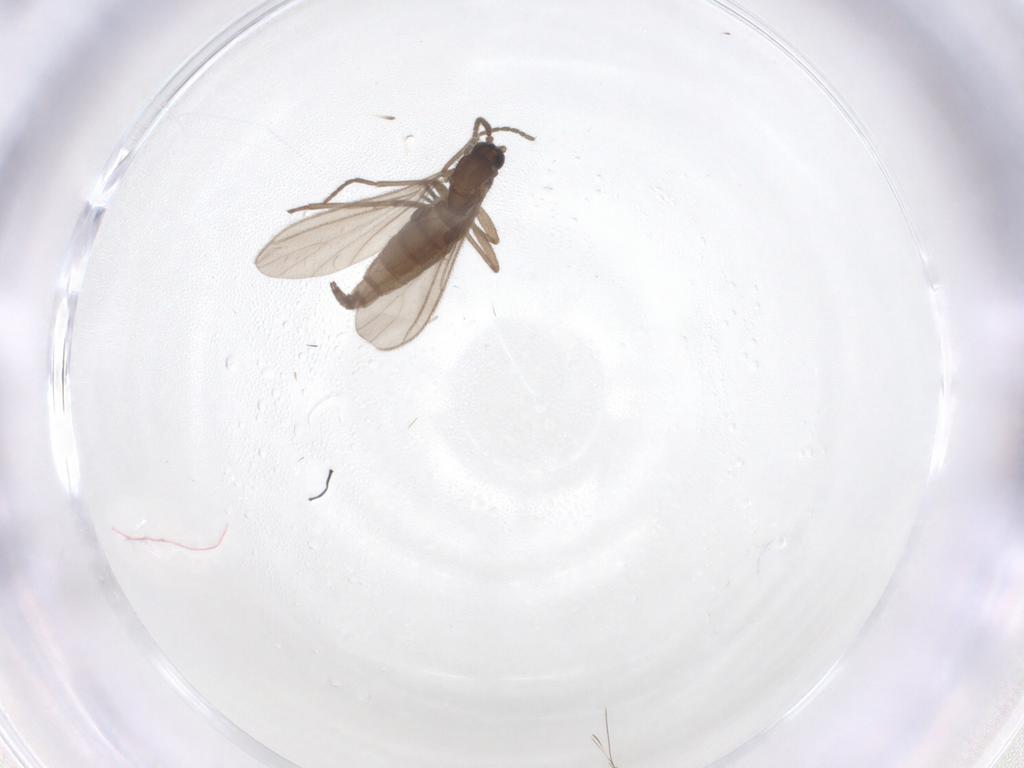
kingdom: Animalia
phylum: Arthropoda
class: Insecta
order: Diptera
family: Sciaridae
